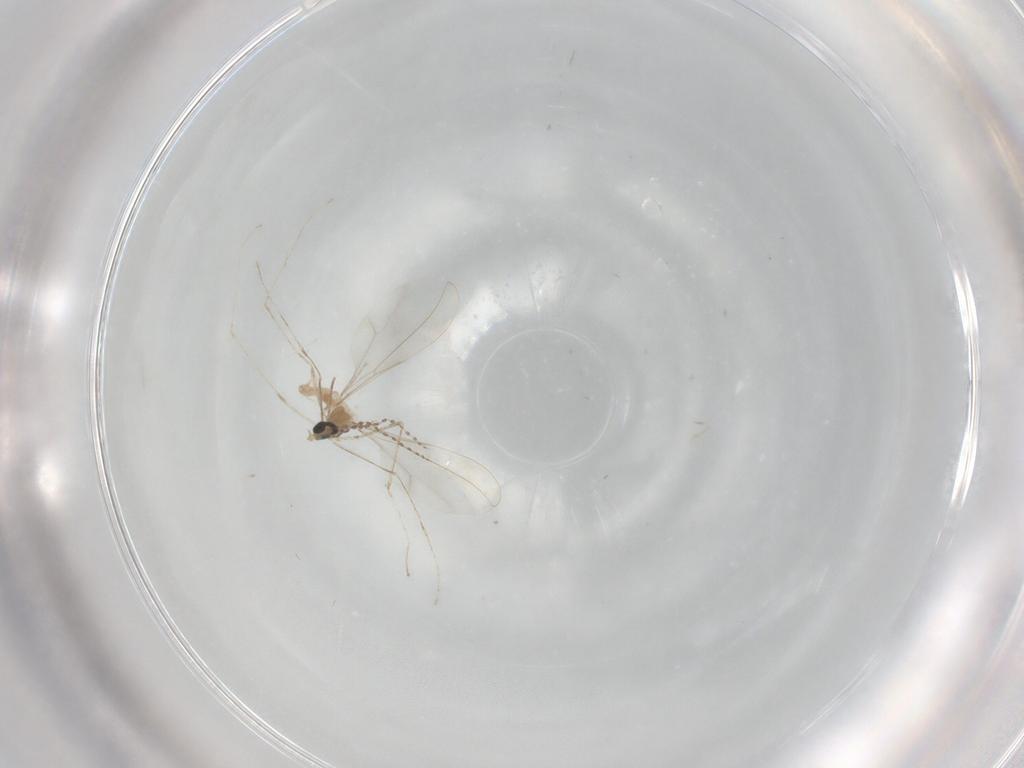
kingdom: Animalia
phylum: Arthropoda
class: Insecta
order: Diptera
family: Cecidomyiidae
